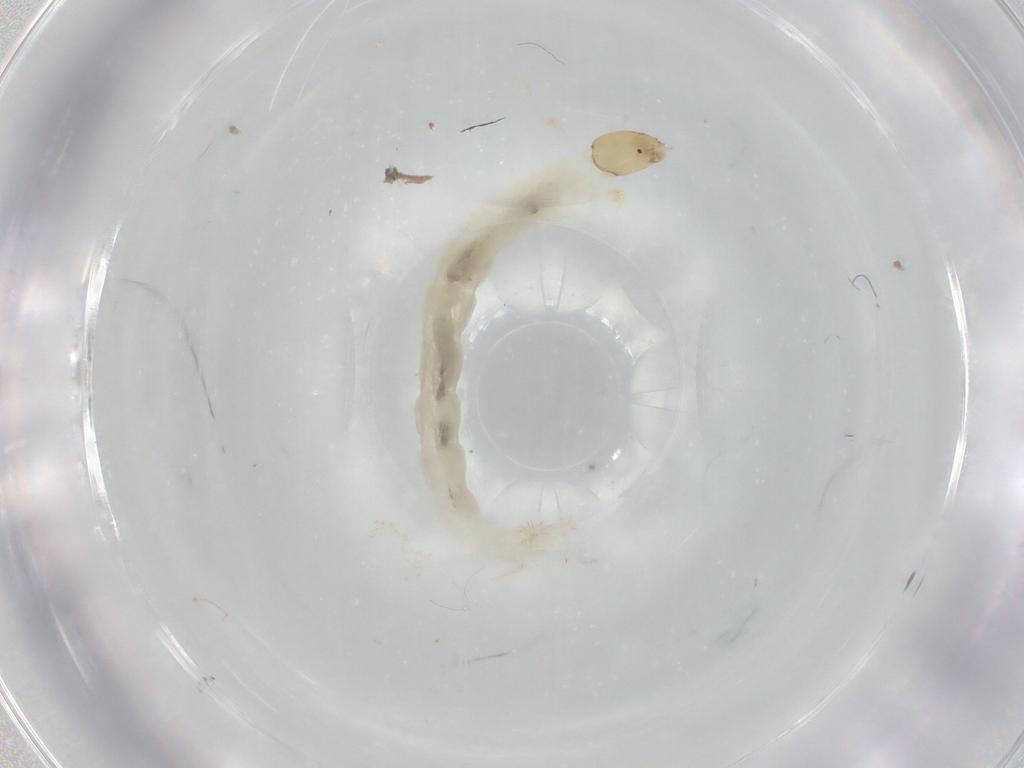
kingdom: Animalia
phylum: Arthropoda
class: Insecta
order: Diptera
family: Chironomidae
